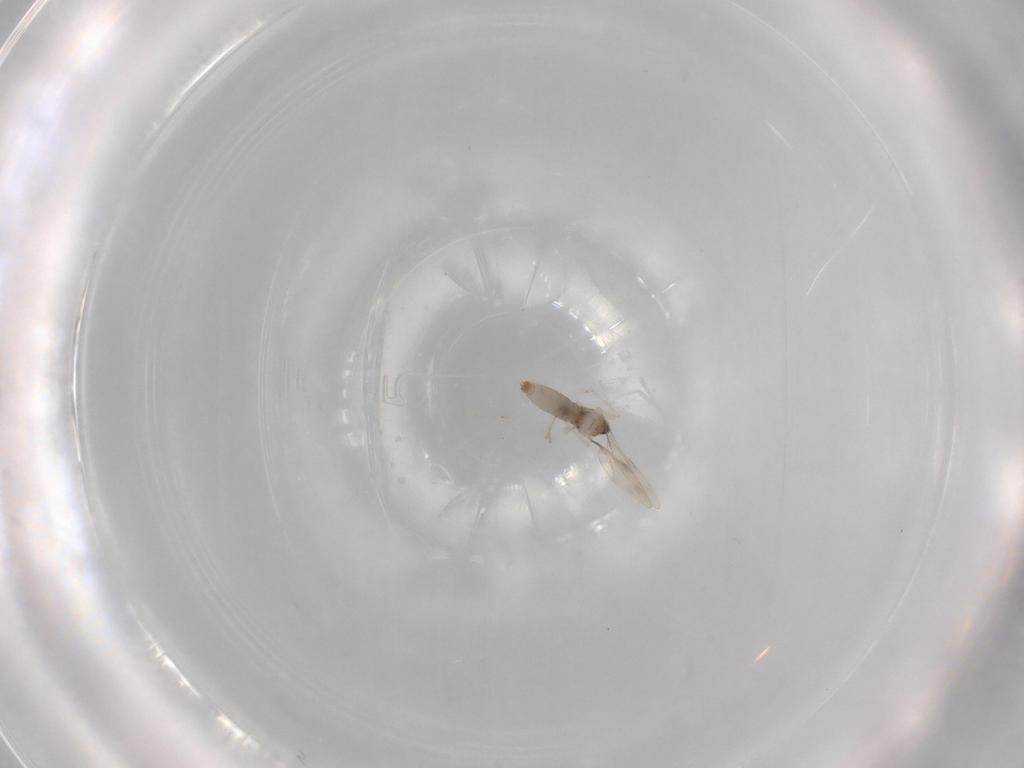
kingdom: Animalia
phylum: Arthropoda
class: Insecta
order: Diptera
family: Cecidomyiidae
